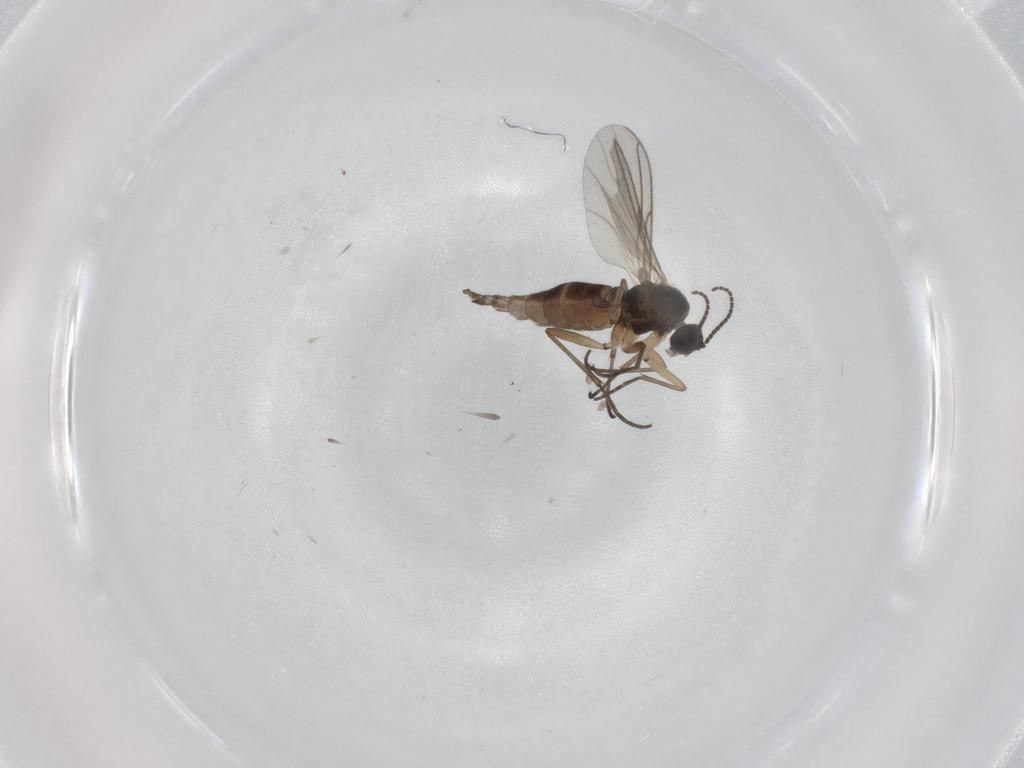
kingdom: Animalia
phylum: Arthropoda
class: Insecta
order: Diptera
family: Sciaridae
